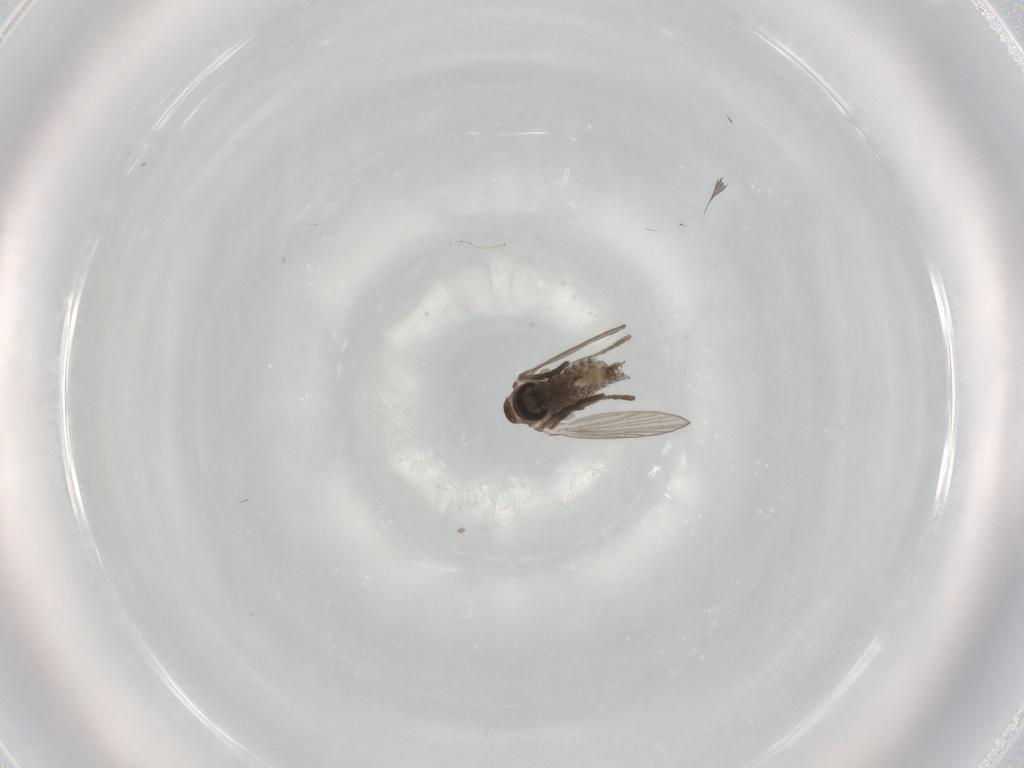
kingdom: Animalia
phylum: Arthropoda
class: Insecta
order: Diptera
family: Psychodidae
